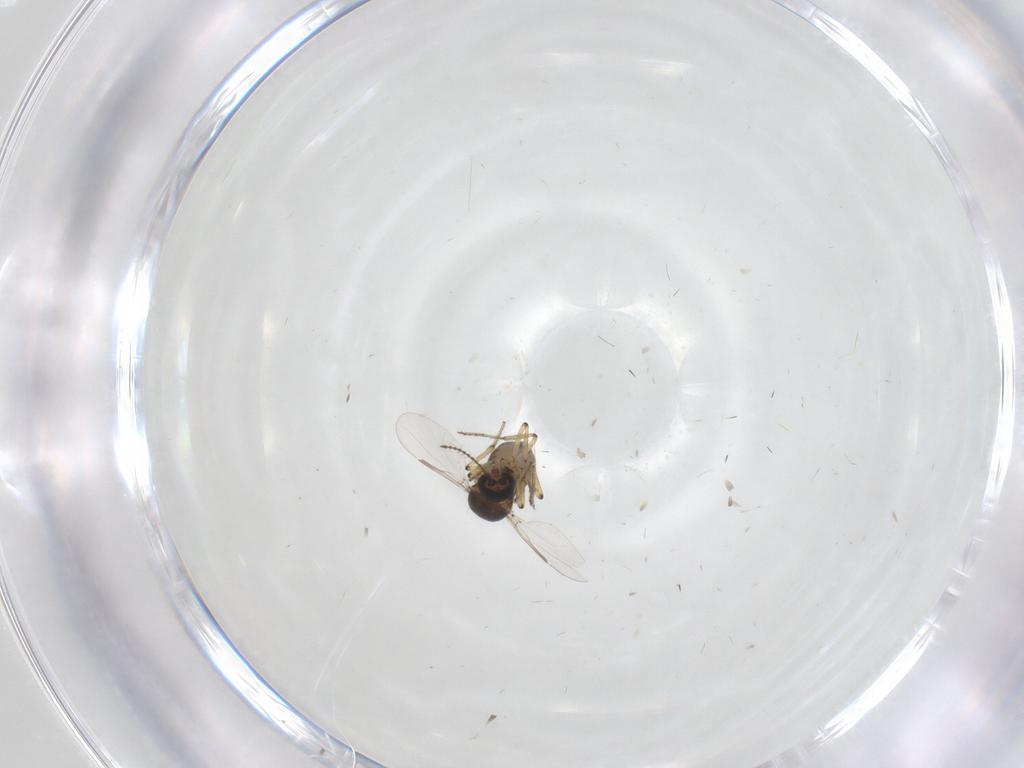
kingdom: Animalia
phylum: Arthropoda
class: Insecta
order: Diptera
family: Ceratopogonidae
